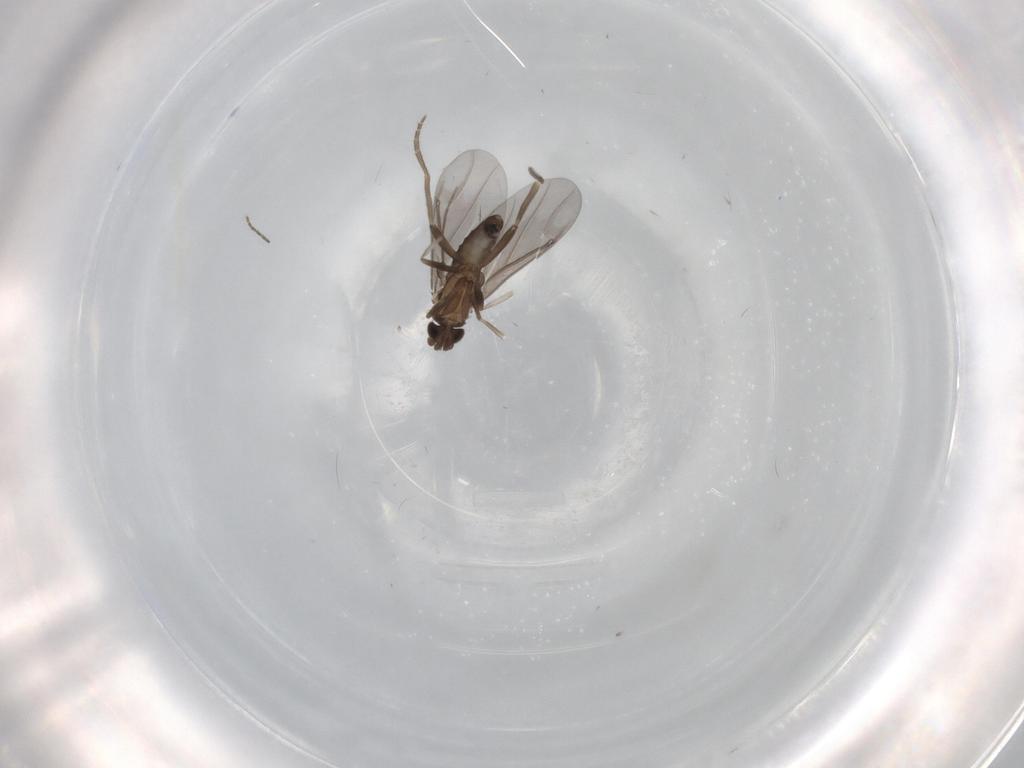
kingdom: Animalia
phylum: Arthropoda
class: Insecta
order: Diptera
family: Phoridae
